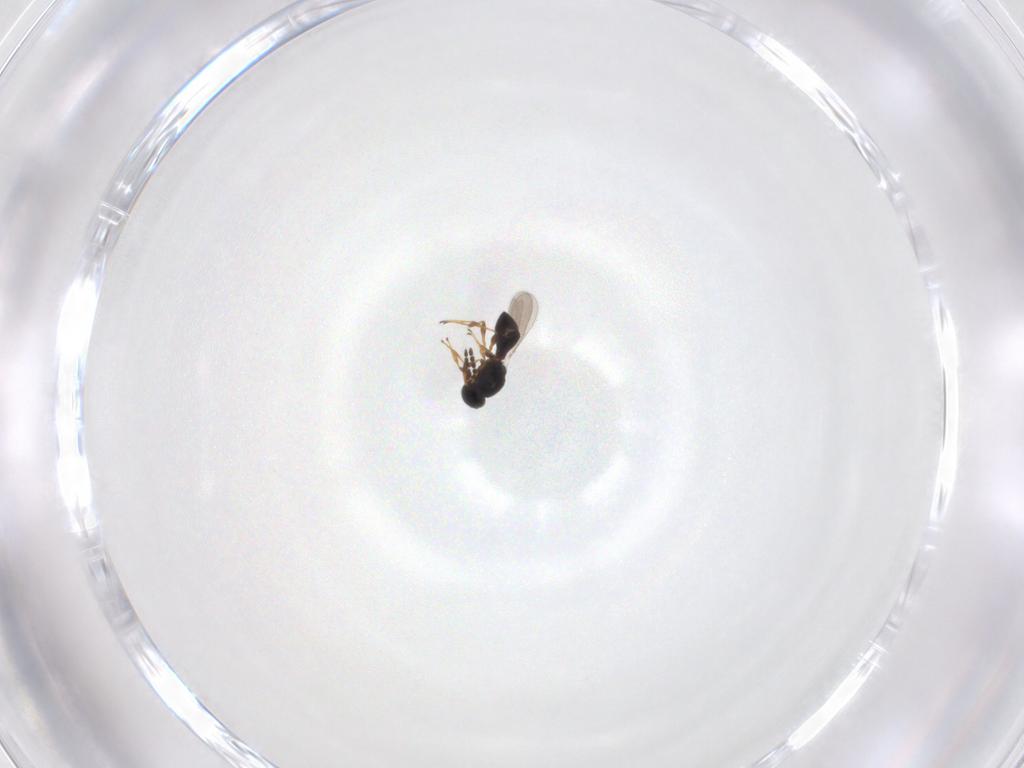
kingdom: Animalia
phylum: Arthropoda
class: Insecta
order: Hymenoptera
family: Platygastridae
